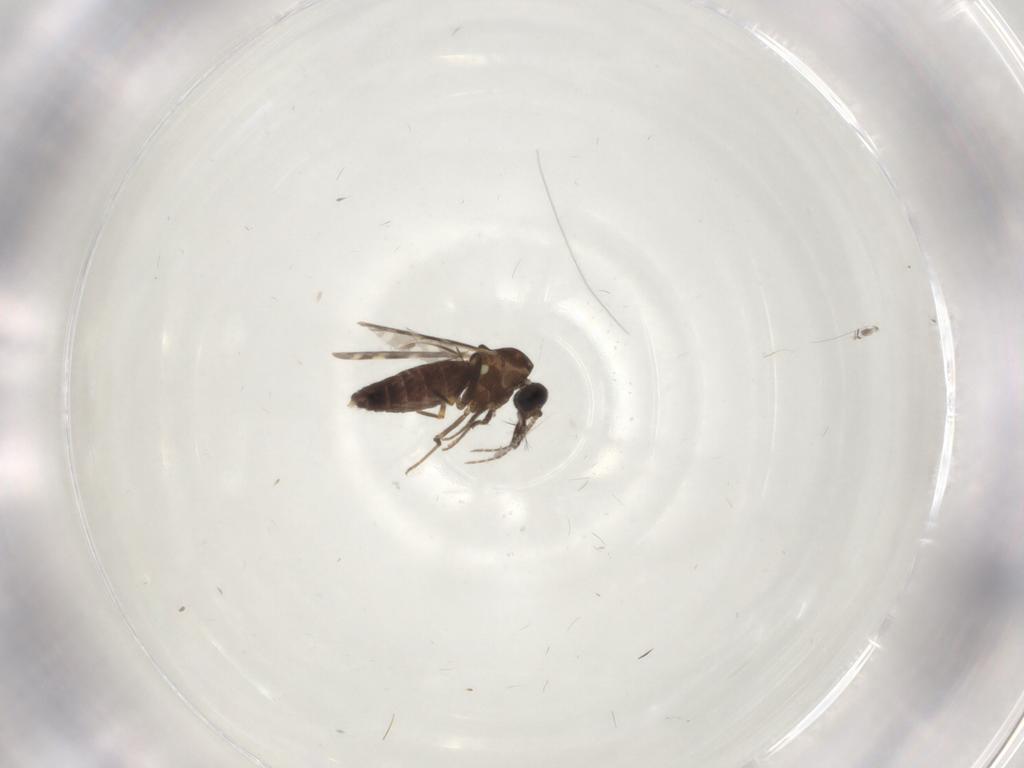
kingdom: Animalia
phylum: Arthropoda
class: Insecta
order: Diptera
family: Ceratopogonidae
